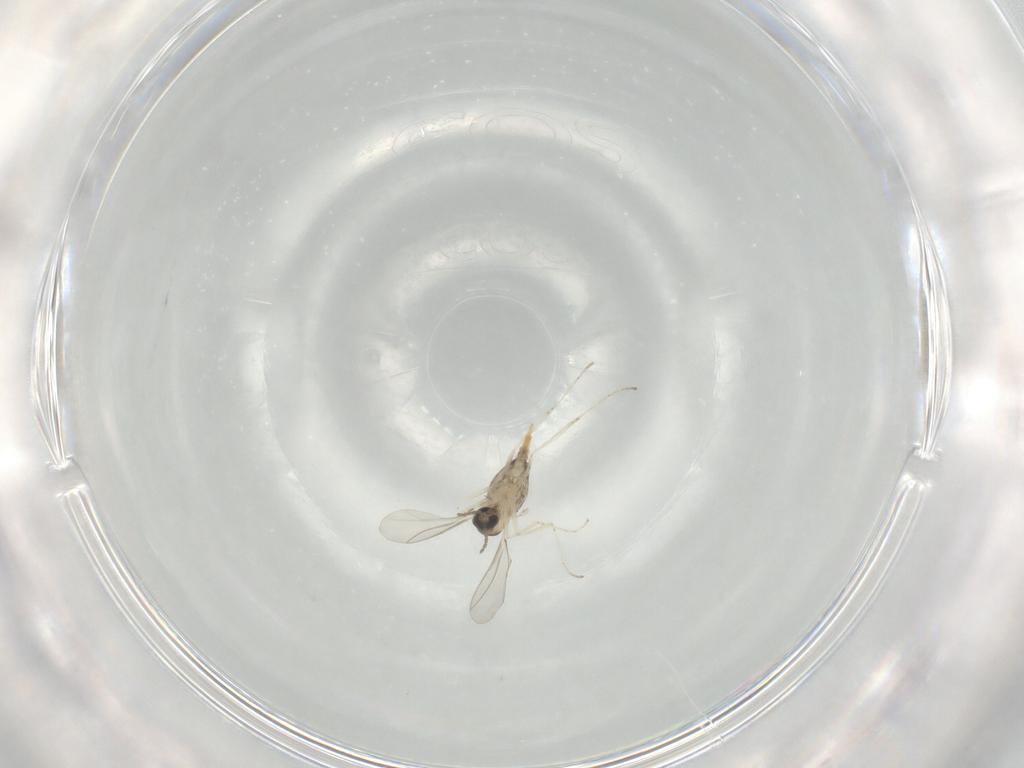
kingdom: Animalia
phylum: Arthropoda
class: Insecta
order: Diptera
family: Cecidomyiidae
